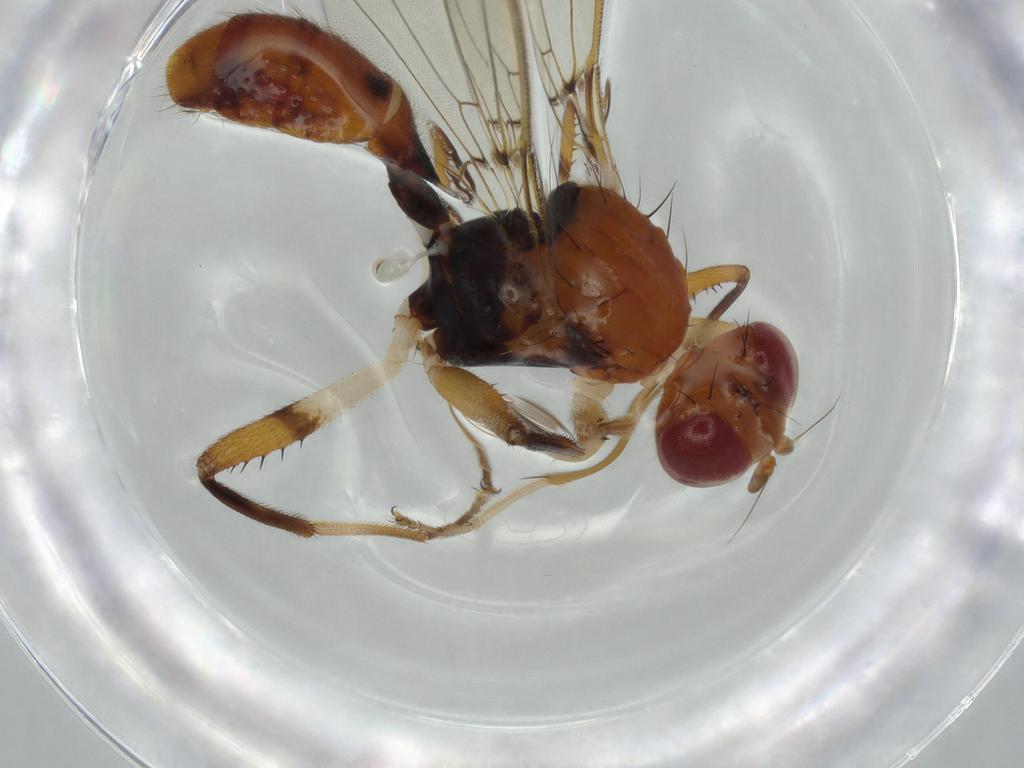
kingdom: Animalia
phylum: Arthropoda
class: Insecta
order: Diptera
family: Richardiidae
